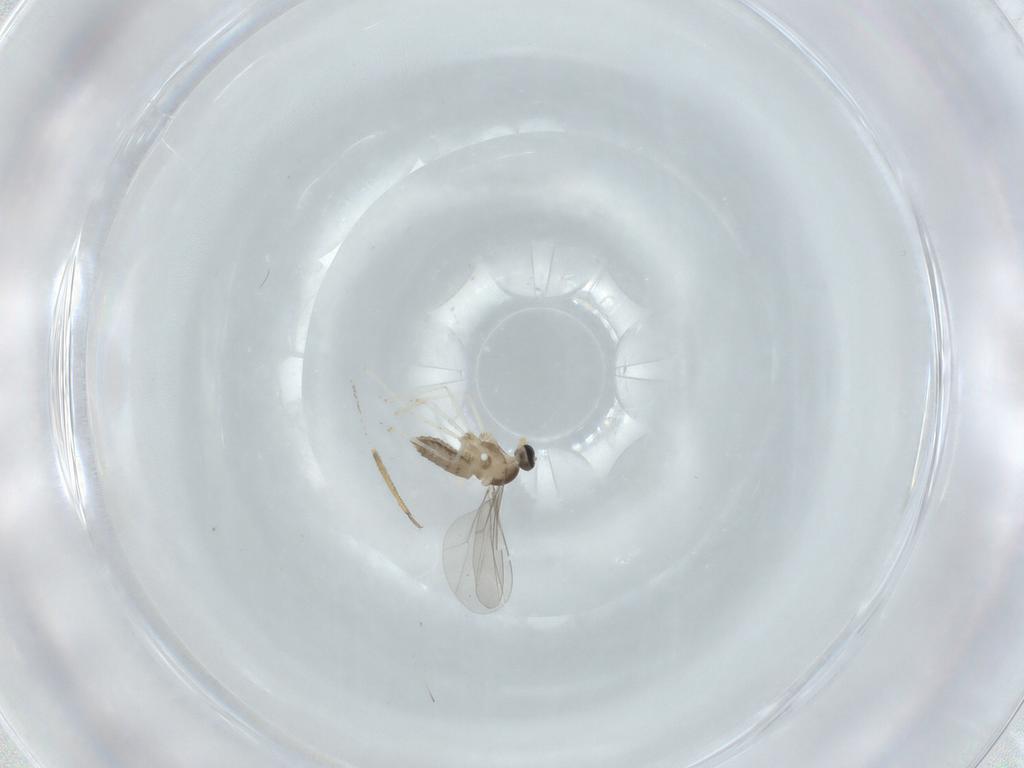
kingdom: Animalia
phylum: Arthropoda
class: Insecta
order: Diptera
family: Cecidomyiidae
